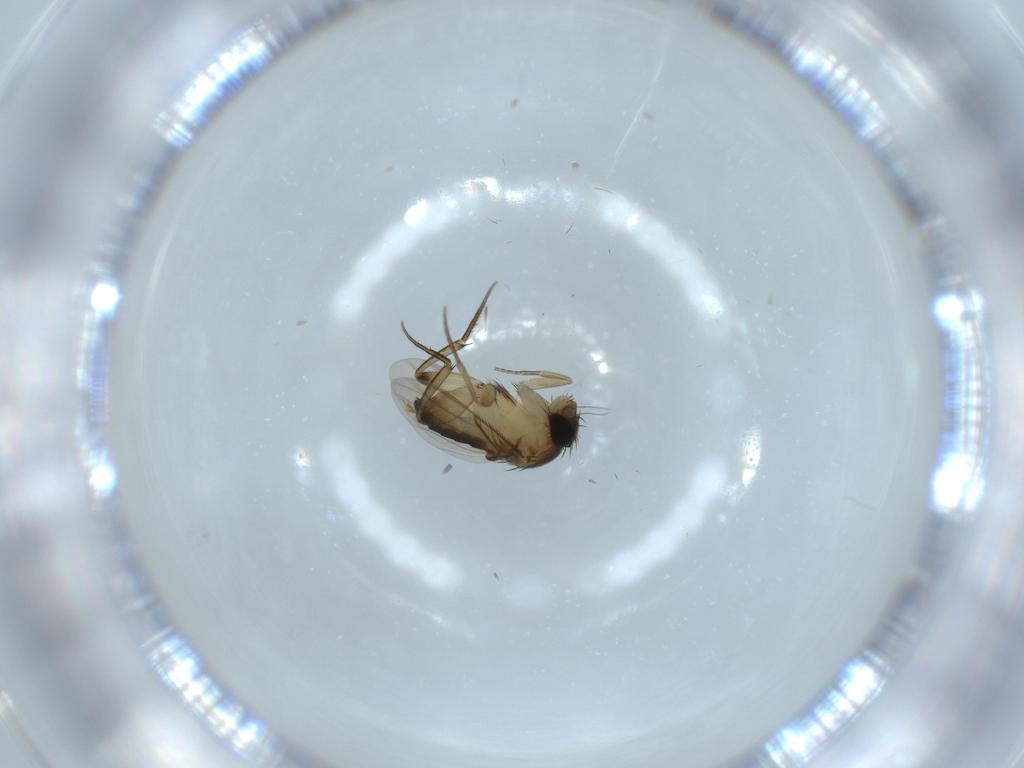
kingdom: Animalia
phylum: Arthropoda
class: Insecta
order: Diptera
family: Phoridae
